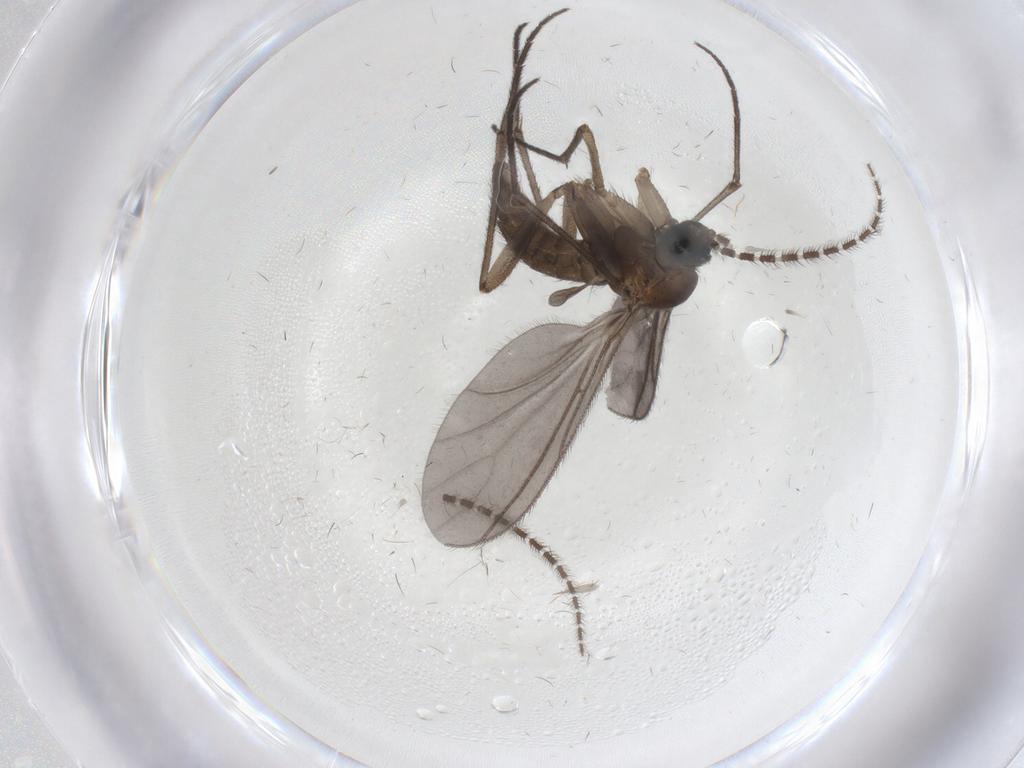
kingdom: Animalia
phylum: Arthropoda
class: Insecta
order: Diptera
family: Sciaridae
